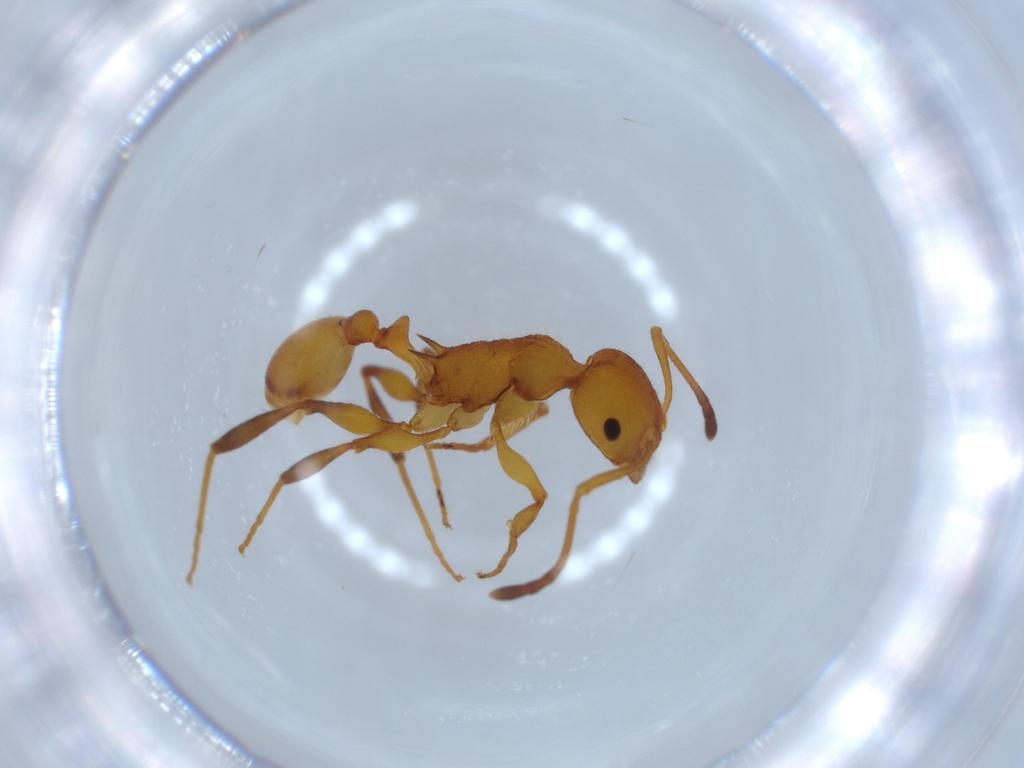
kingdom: Animalia
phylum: Arthropoda
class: Insecta
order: Hymenoptera
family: Formicidae
